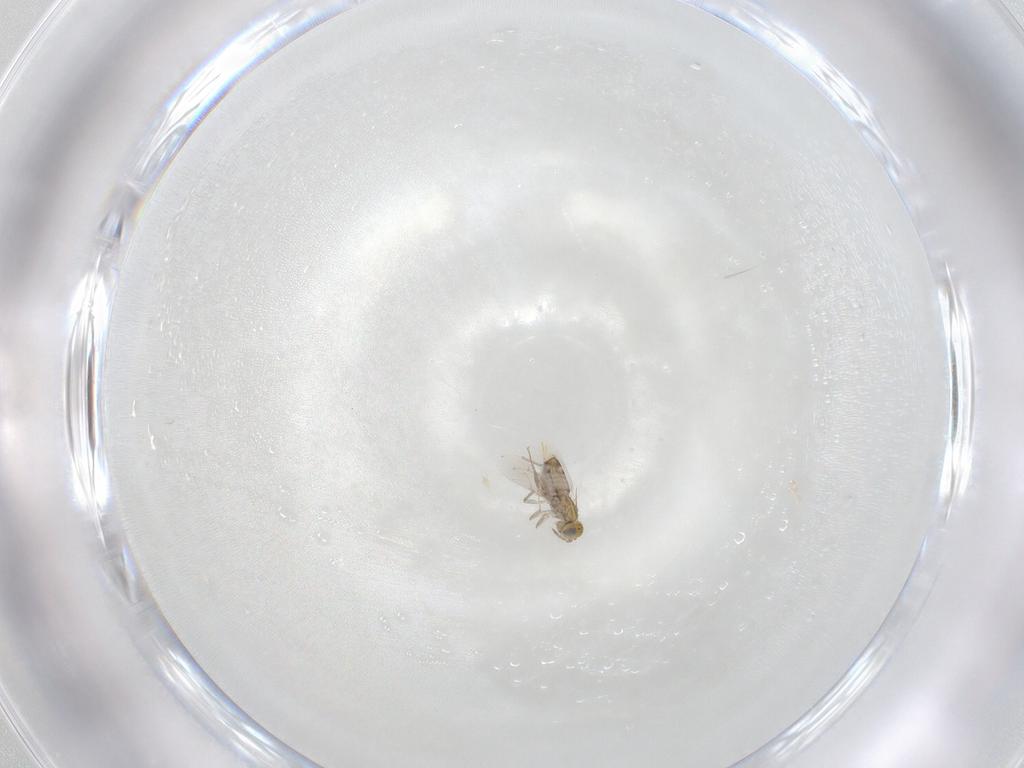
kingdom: Animalia
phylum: Arthropoda
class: Insecta
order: Hymenoptera
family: Aphelinidae
